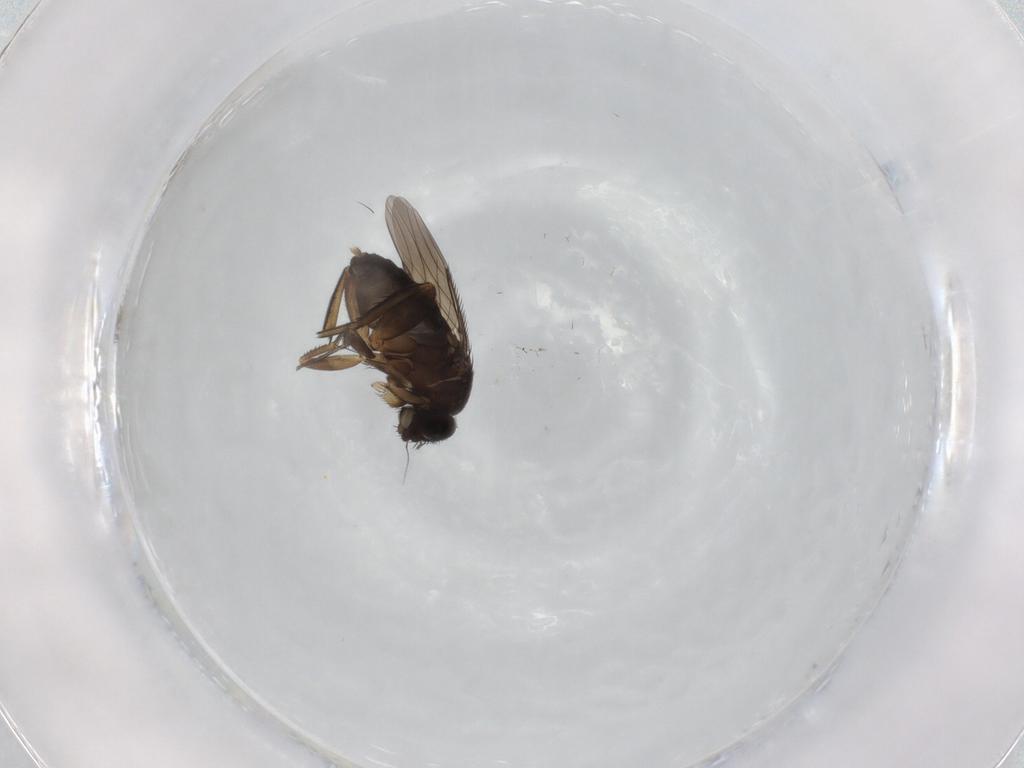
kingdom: Animalia
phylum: Arthropoda
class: Insecta
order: Diptera
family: Phoridae
